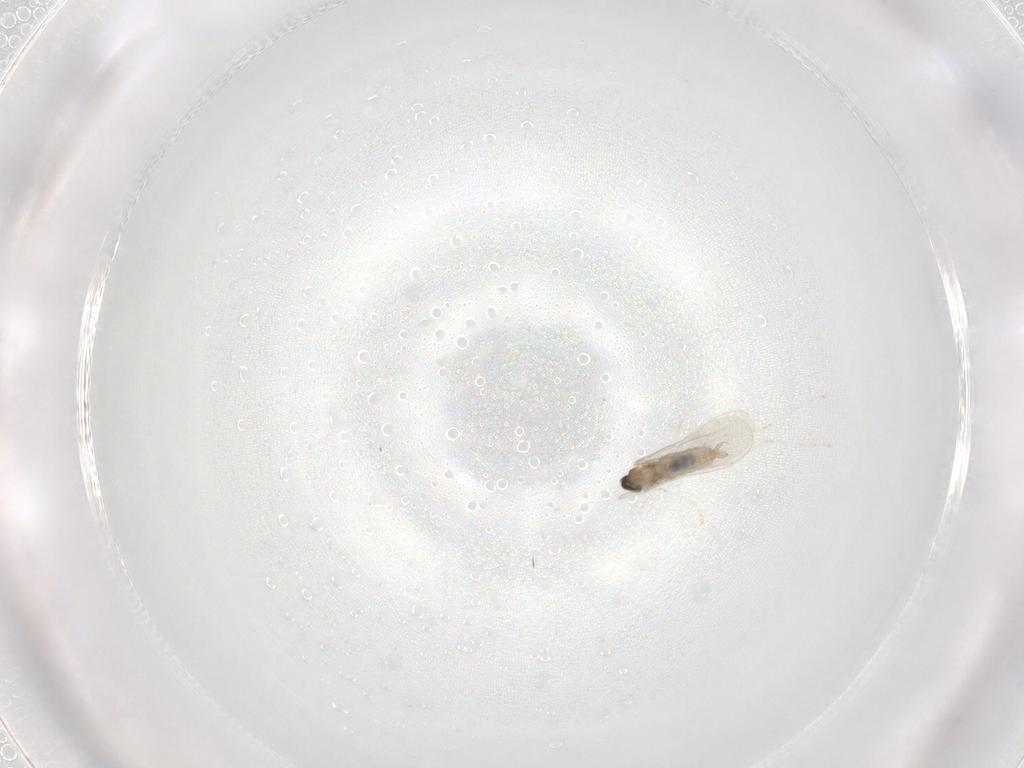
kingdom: Animalia
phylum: Arthropoda
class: Insecta
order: Diptera
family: Cecidomyiidae
